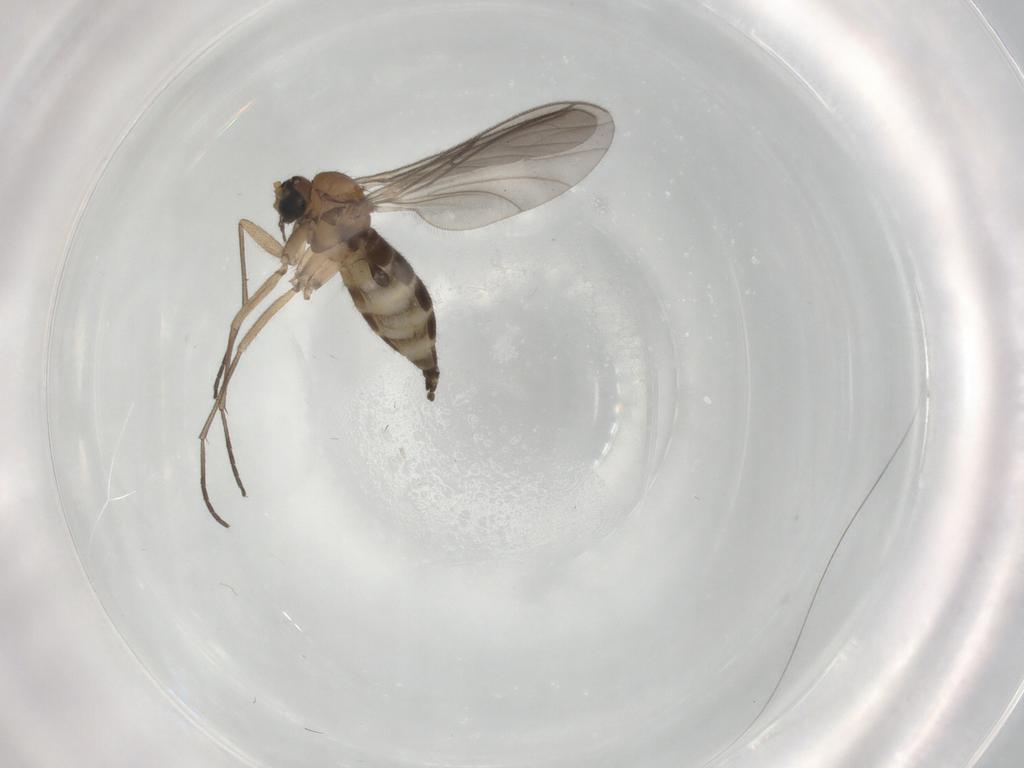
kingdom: Animalia
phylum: Arthropoda
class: Insecta
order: Diptera
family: Sciaridae
